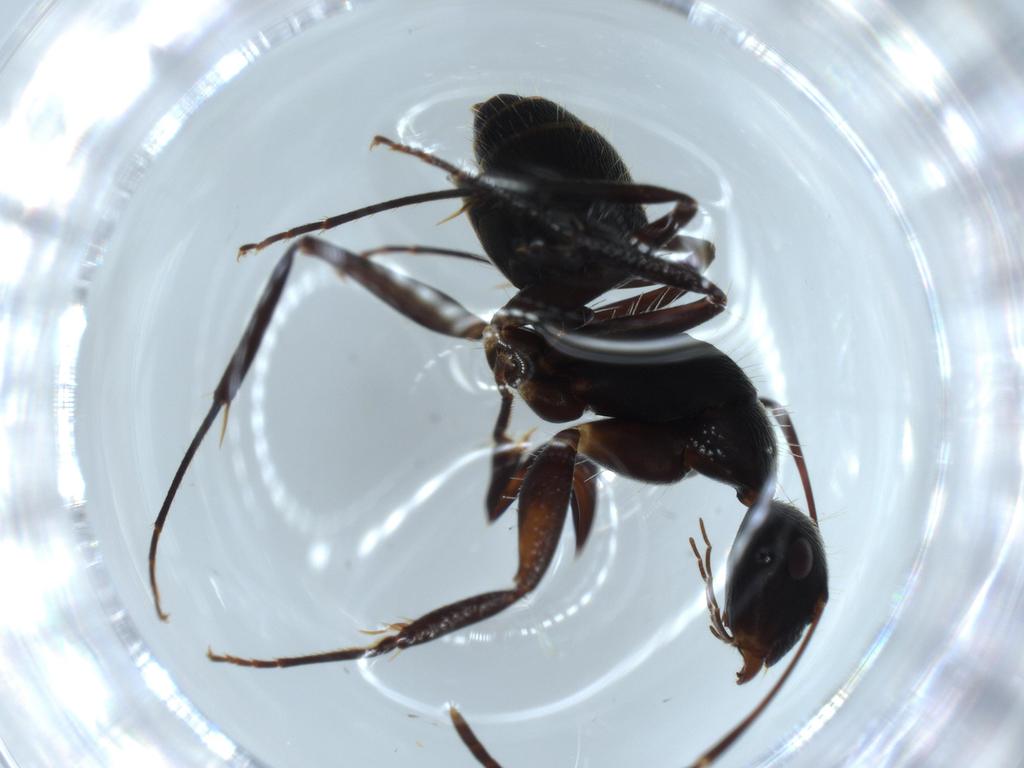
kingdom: Animalia
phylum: Arthropoda
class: Insecta
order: Hymenoptera
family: Formicidae
